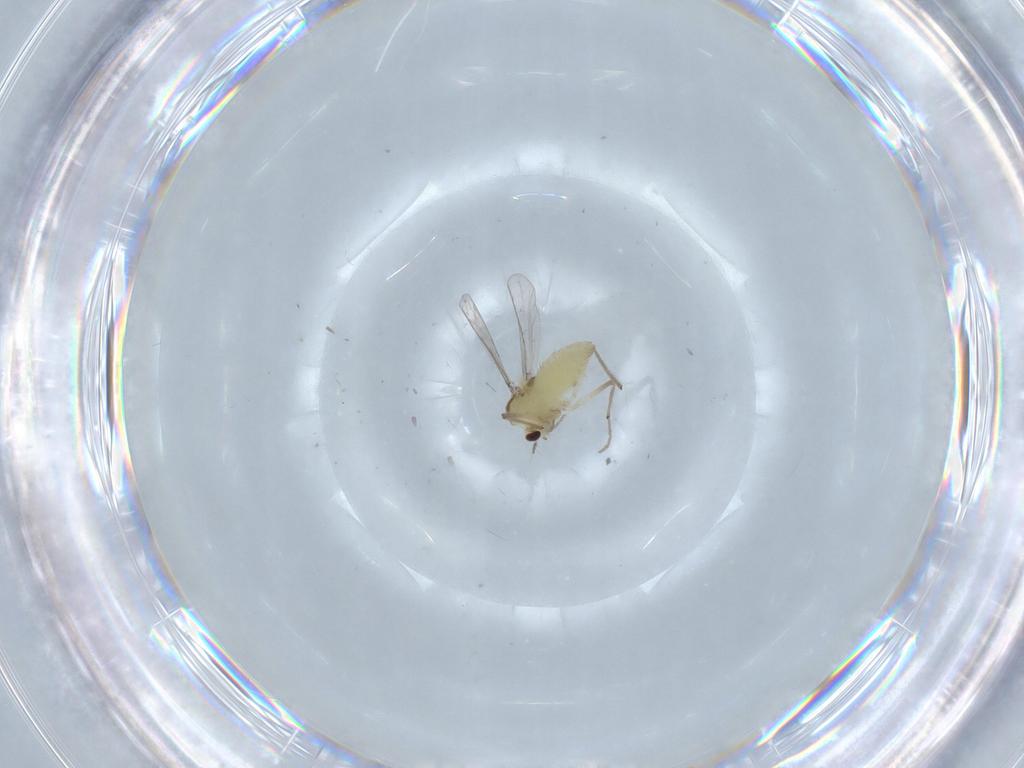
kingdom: Animalia
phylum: Arthropoda
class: Insecta
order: Diptera
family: Chironomidae
